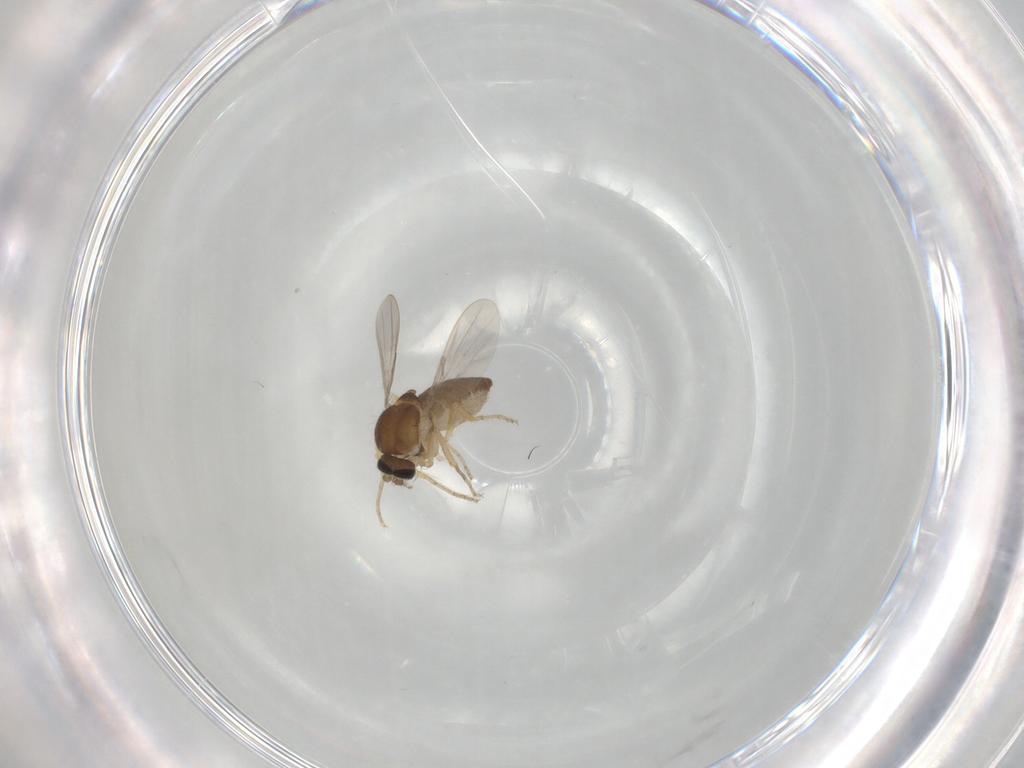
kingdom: Animalia
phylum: Arthropoda
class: Insecta
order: Diptera
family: Ceratopogonidae
